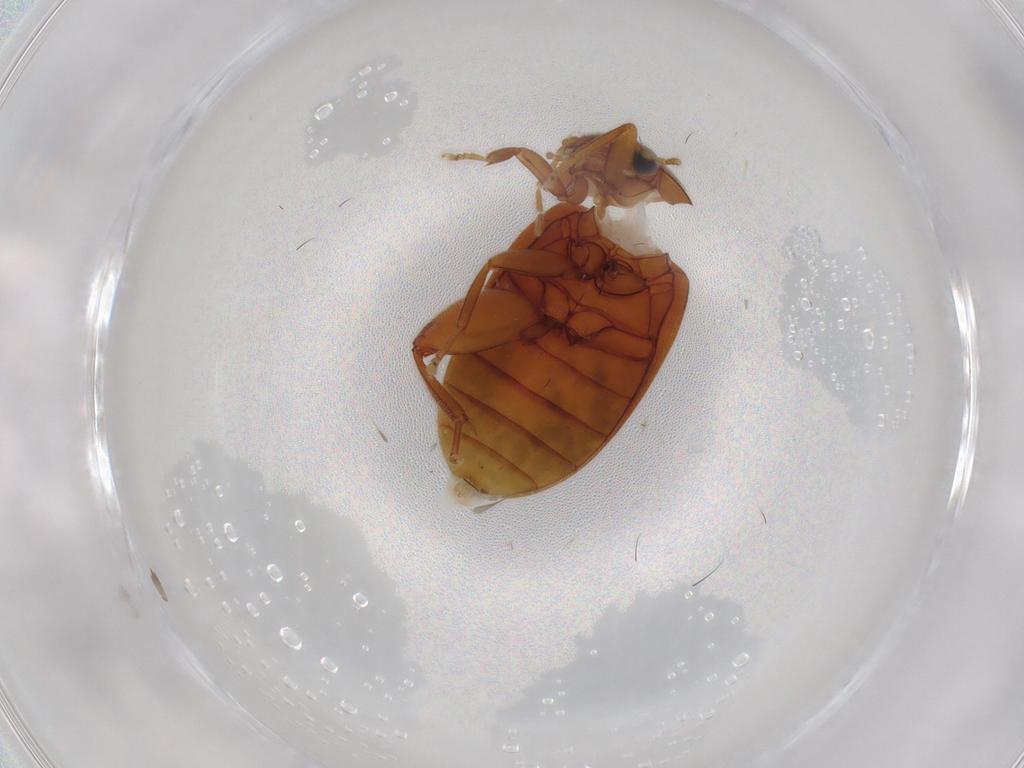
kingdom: Animalia
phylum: Arthropoda
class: Insecta
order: Coleoptera
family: Scirtidae
